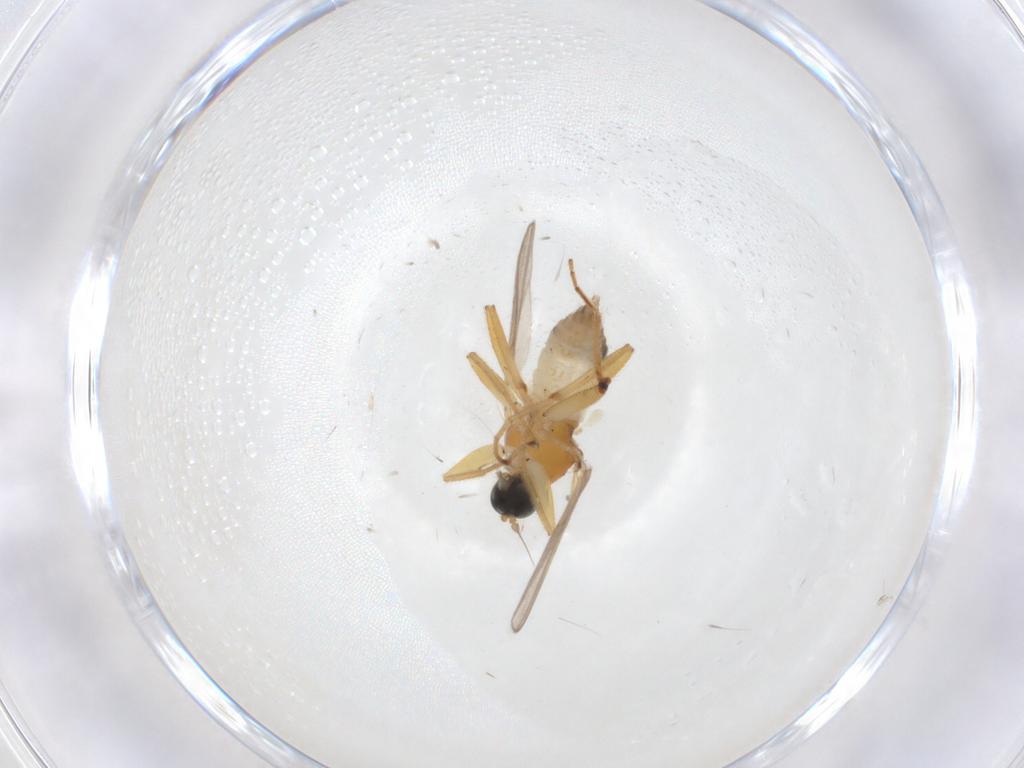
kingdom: Animalia
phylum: Arthropoda
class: Insecta
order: Diptera
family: Hybotidae
